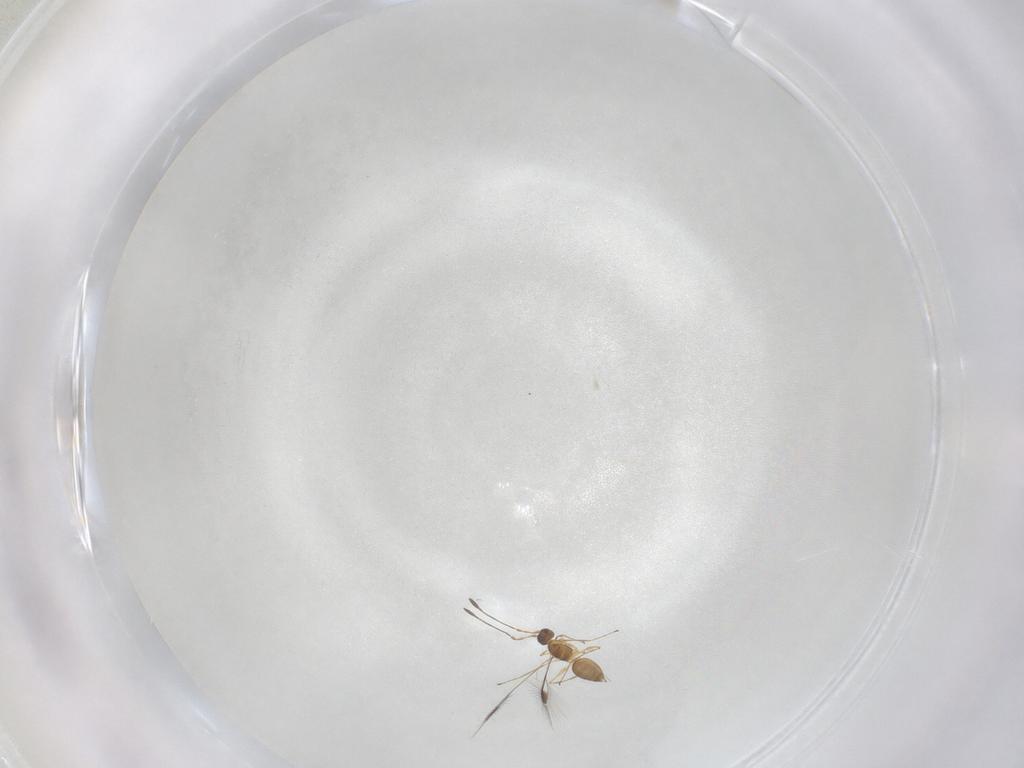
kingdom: Animalia
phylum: Arthropoda
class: Insecta
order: Hymenoptera
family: Mymaridae
